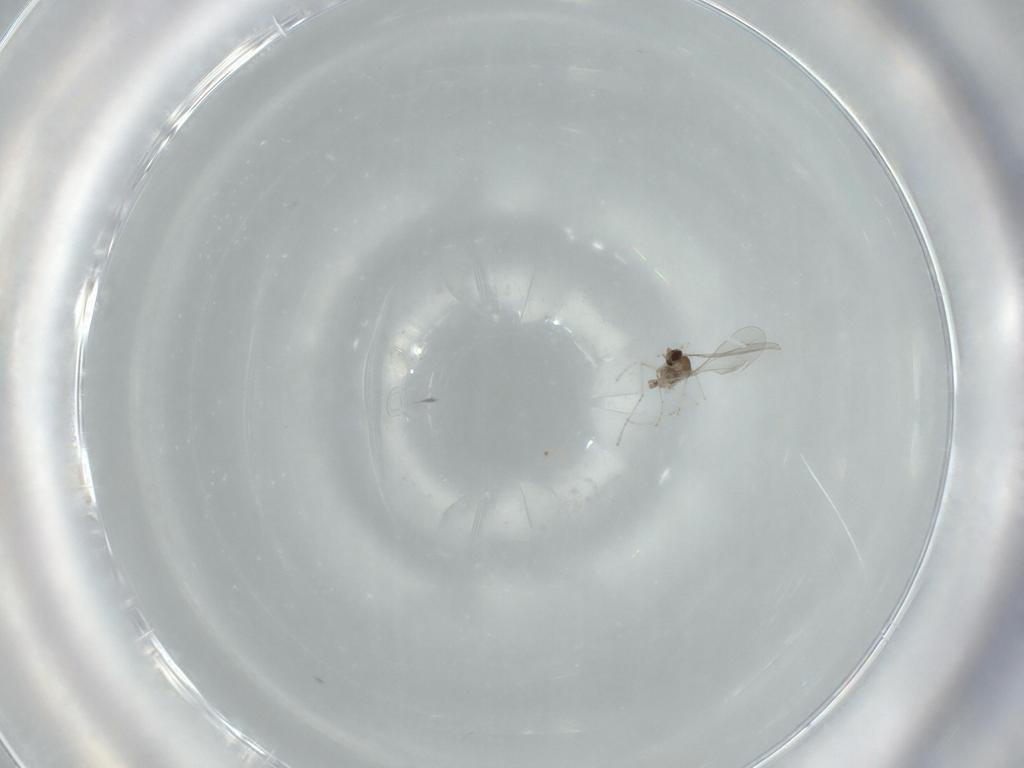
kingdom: Animalia
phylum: Arthropoda
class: Insecta
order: Diptera
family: Cecidomyiidae
